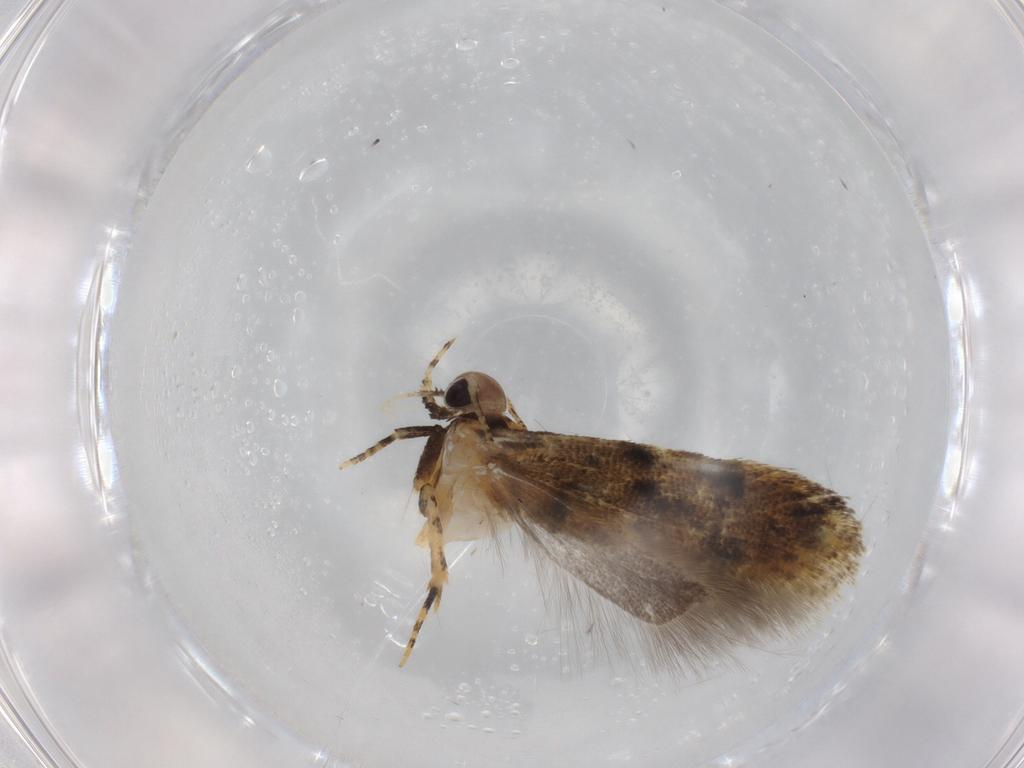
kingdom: Animalia
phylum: Arthropoda
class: Insecta
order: Lepidoptera
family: Gelechiidae
